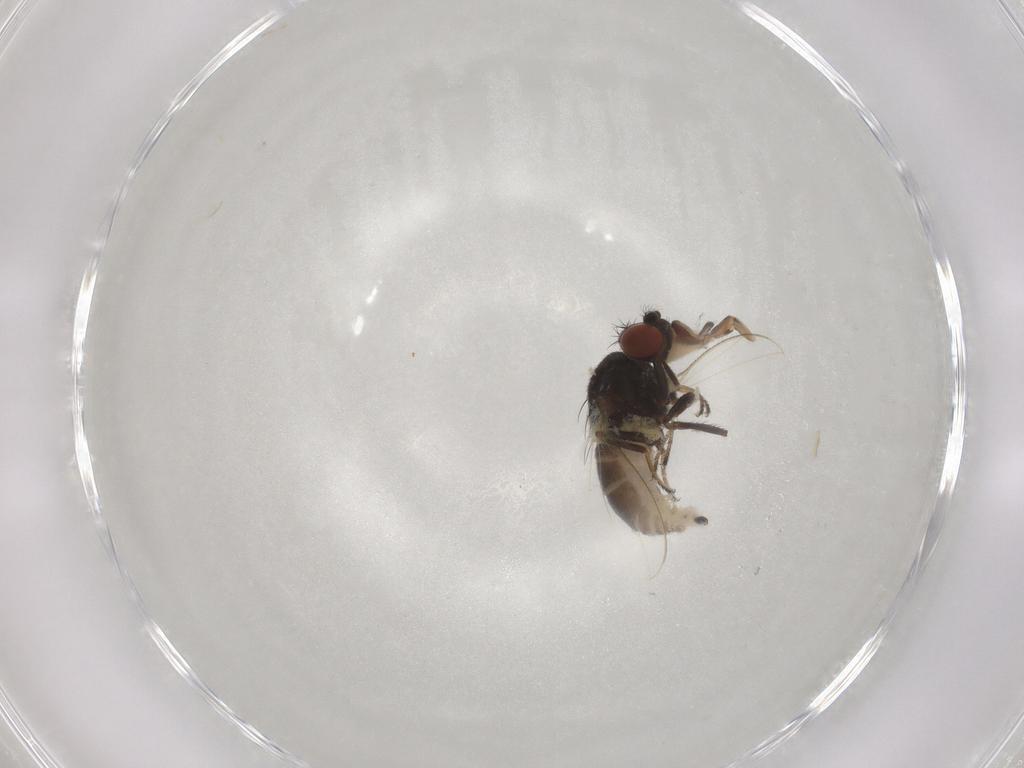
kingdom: Animalia
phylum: Arthropoda
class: Insecta
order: Diptera
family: Ephydridae
